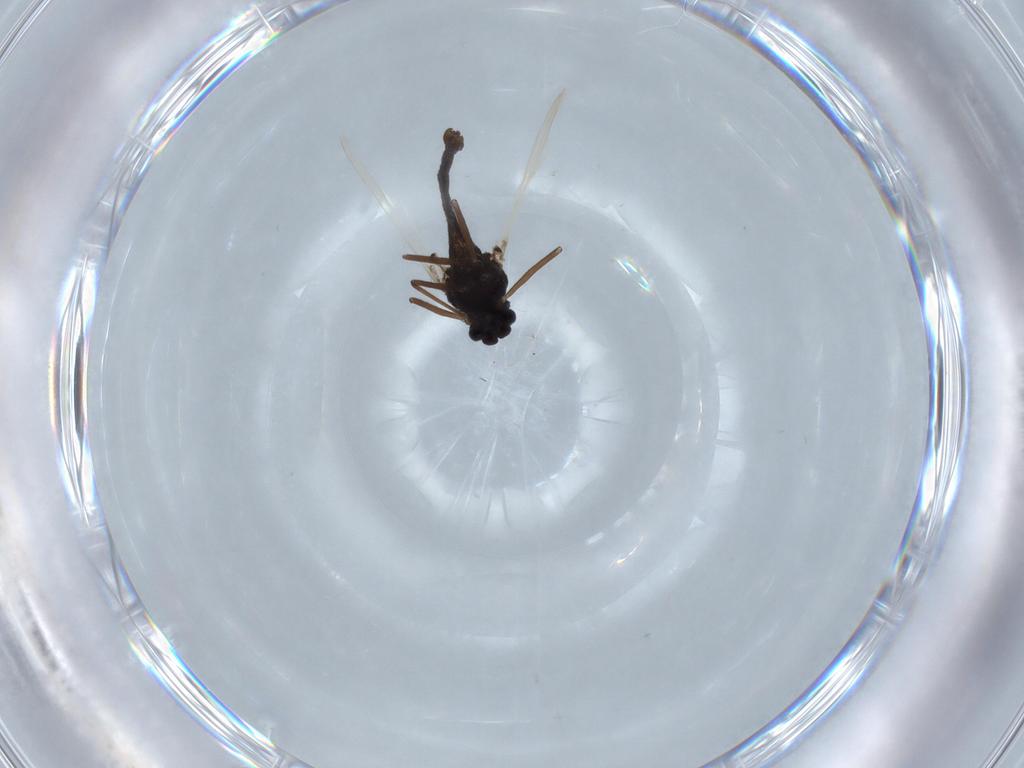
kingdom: Animalia
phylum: Arthropoda
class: Insecta
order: Diptera
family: Chironomidae
